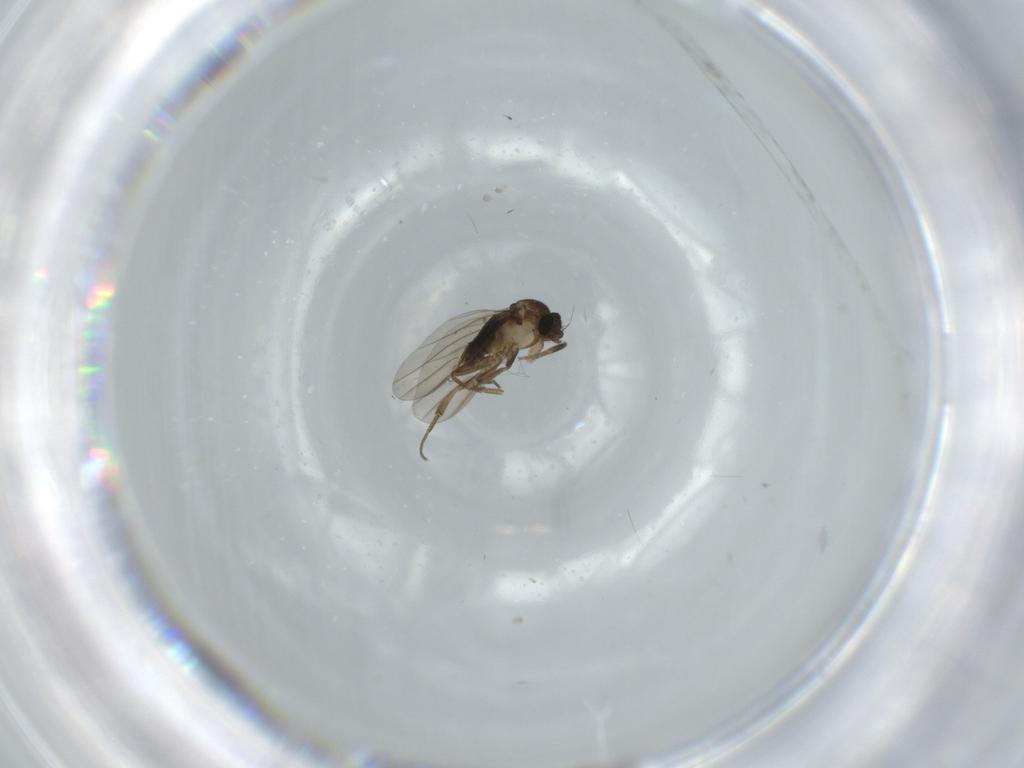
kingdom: Animalia
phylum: Arthropoda
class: Insecta
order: Diptera
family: Phoridae
